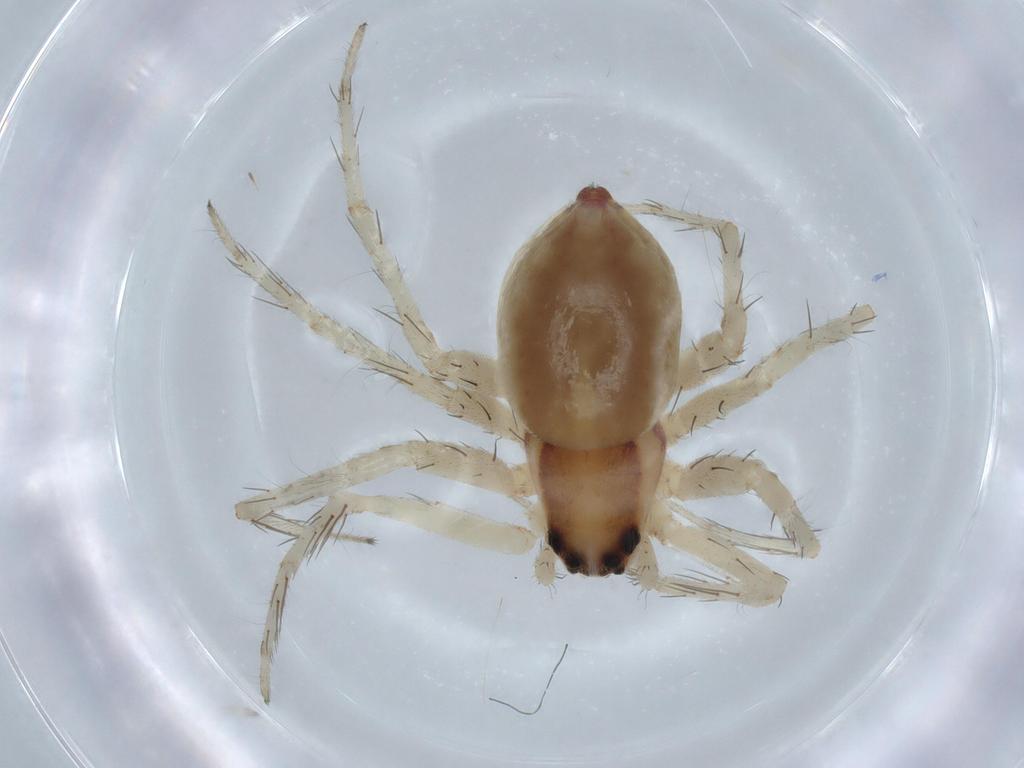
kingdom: Animalia
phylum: Arthropoda
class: Arachnida
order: Araneae
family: Pisauridae
